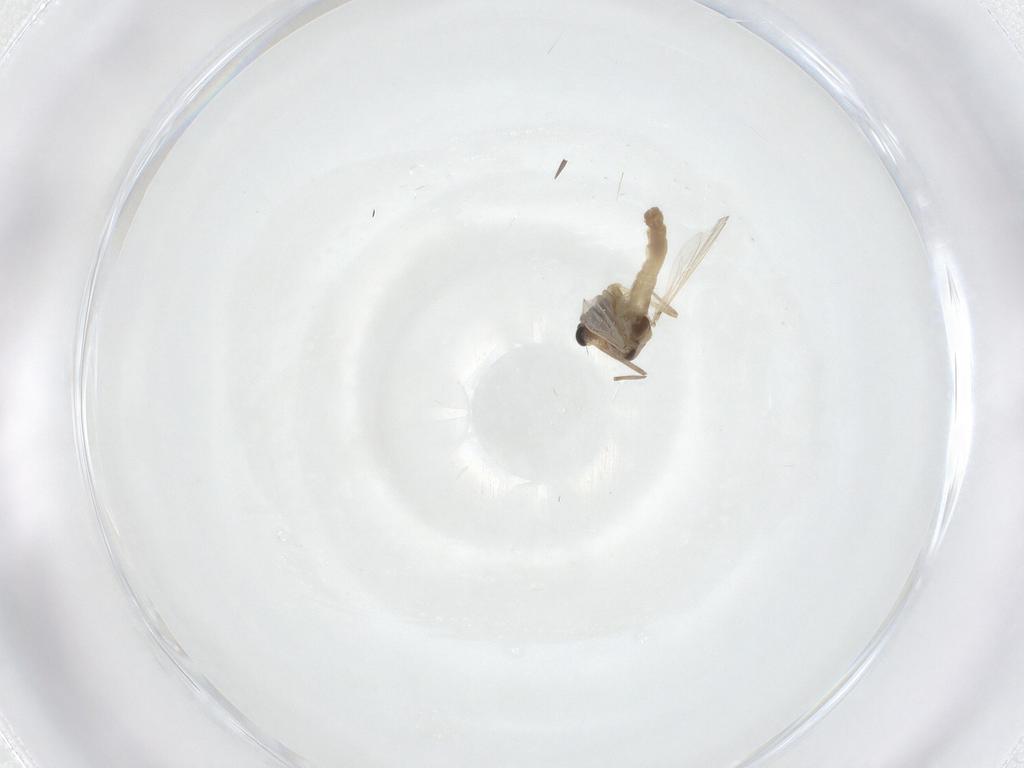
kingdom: Animalia
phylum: Arthropoda
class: Insecta
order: Diptera
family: Chironomidae
